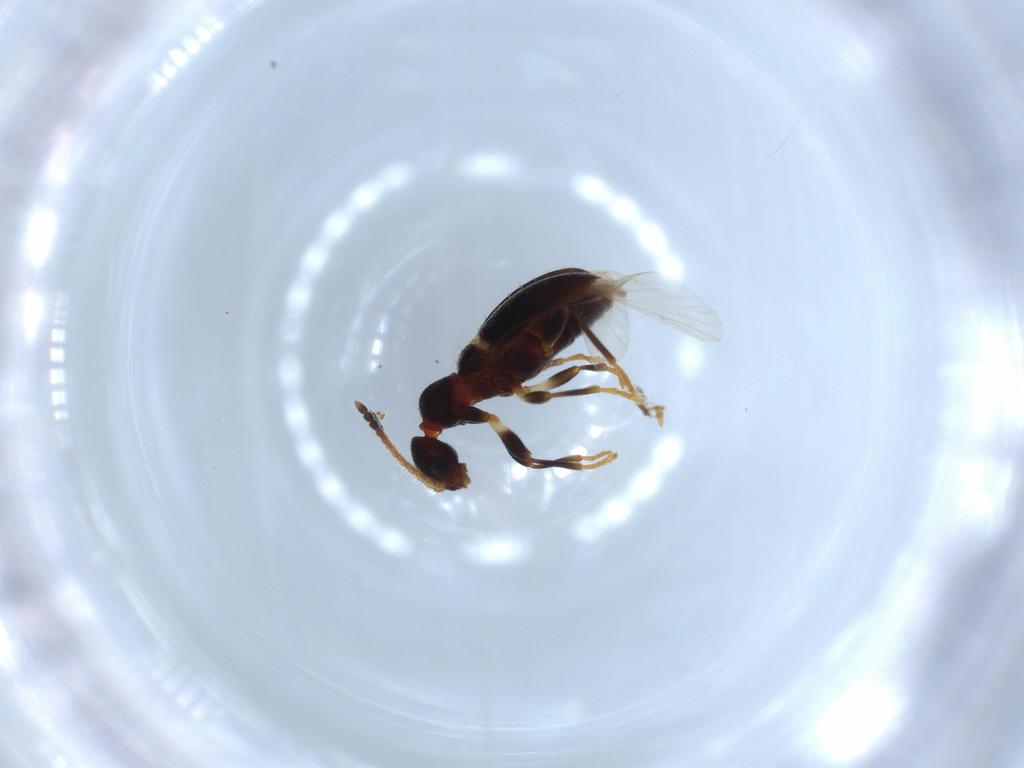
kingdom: Animalia
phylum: Arthropoda
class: Insecta
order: Coleoptera
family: Anthicidae
